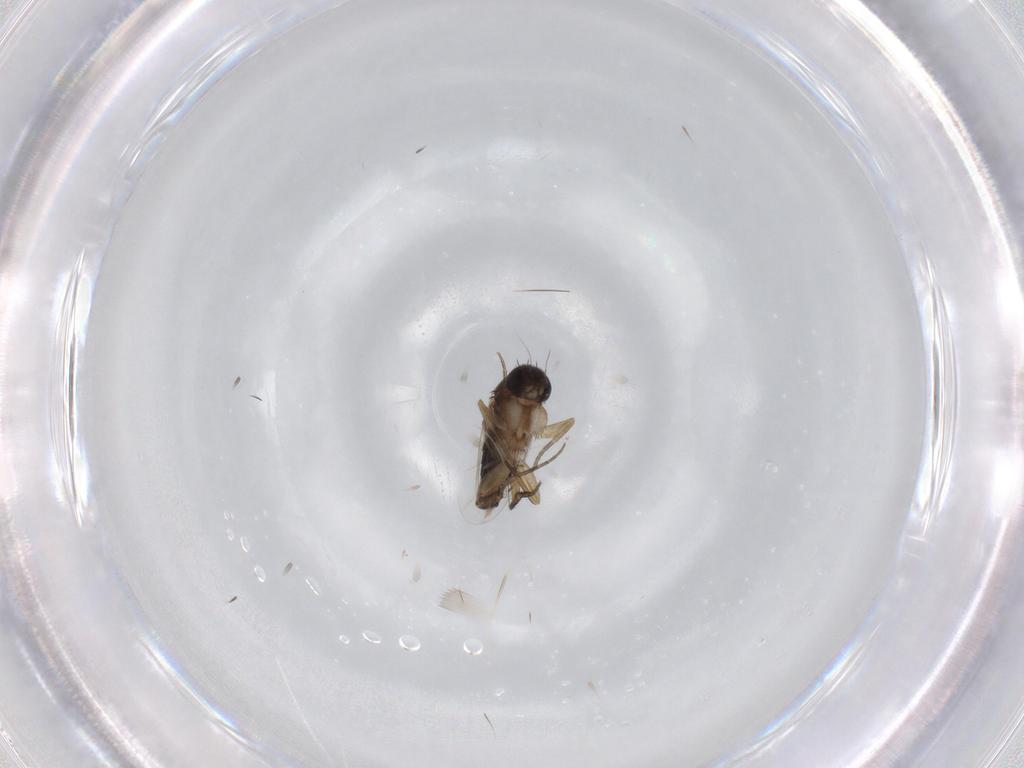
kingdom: Animalia
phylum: Arthropoda
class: Insecta
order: Diptera
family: Phoridae
